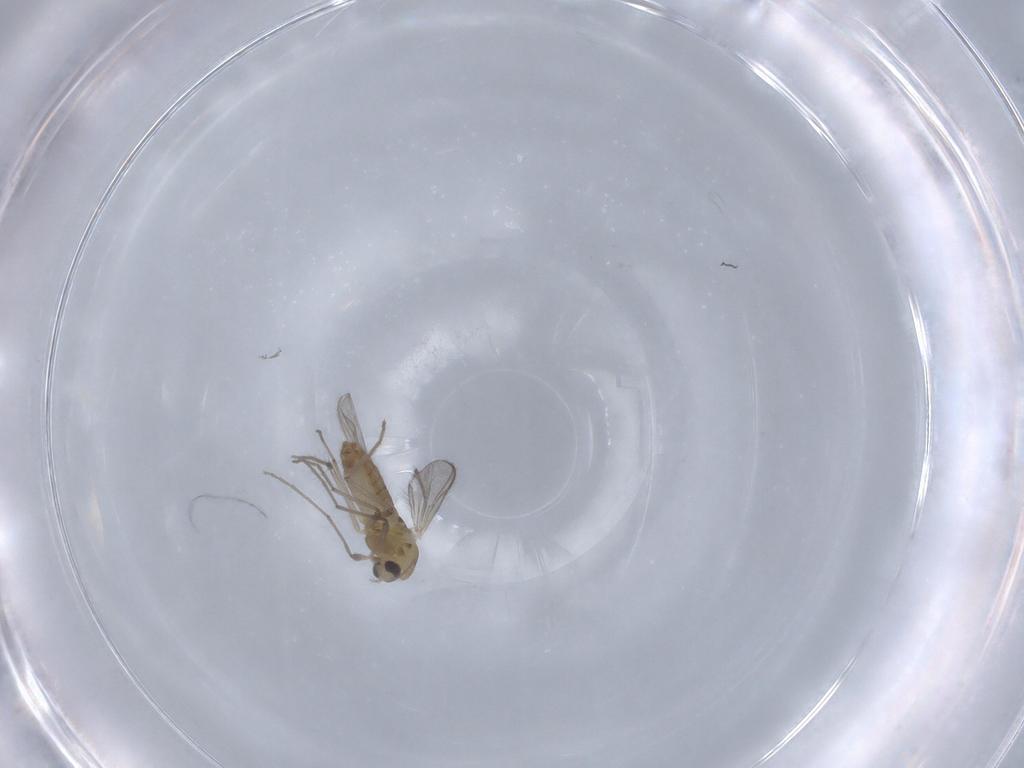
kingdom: Animalia
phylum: Arthropoda
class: Insecta
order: Diptera
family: Chironomidae
